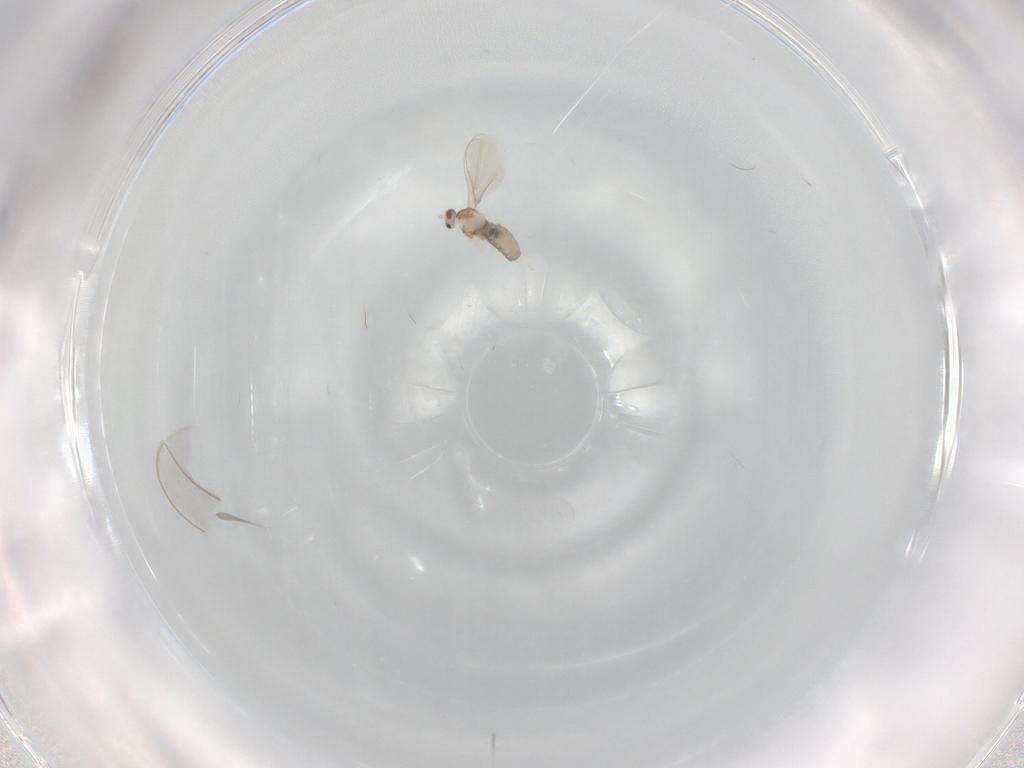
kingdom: Animalia
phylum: Arthropoda
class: Insecta
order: Diptera
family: Cecidomyiidae
